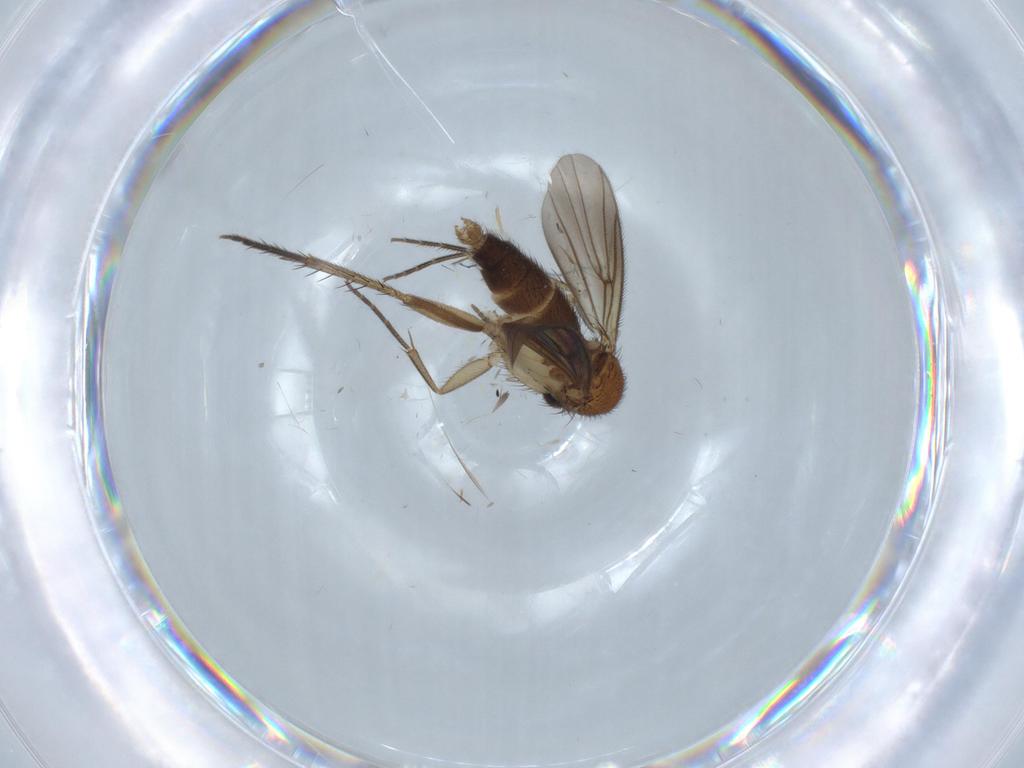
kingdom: Animalia
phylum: Arthropoda
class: Insecta
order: Diptera
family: Mycetophilidae
